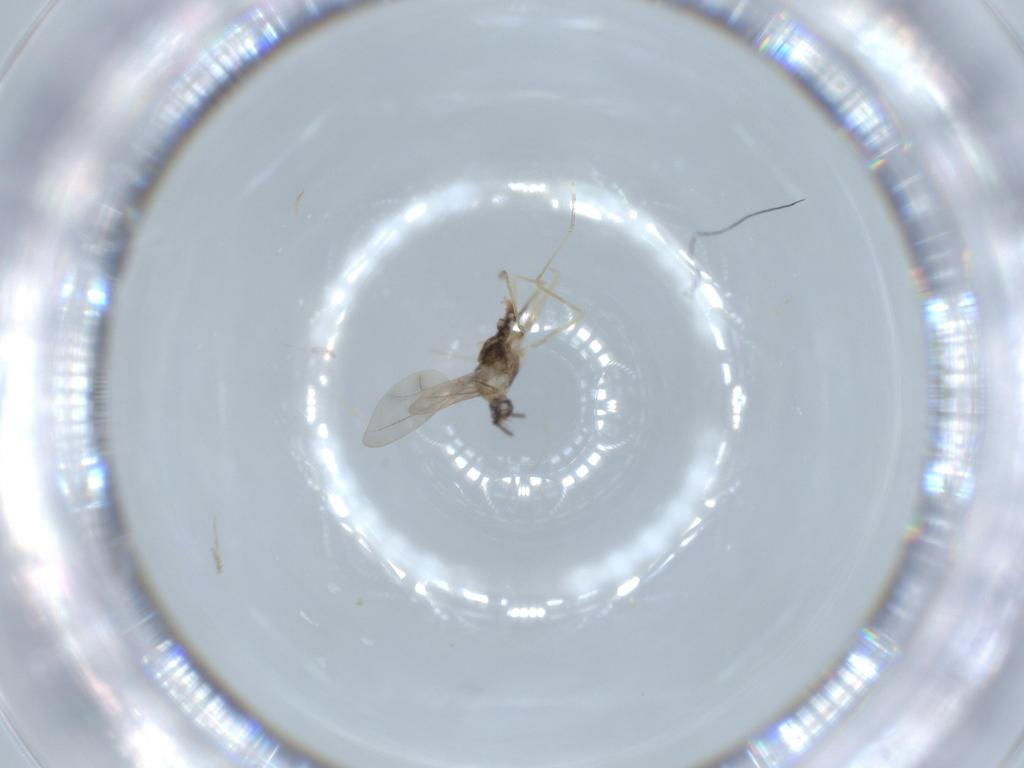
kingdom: Animalia
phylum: Arthropoda
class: Insecta
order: Diptera
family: Cecidomyiidae
